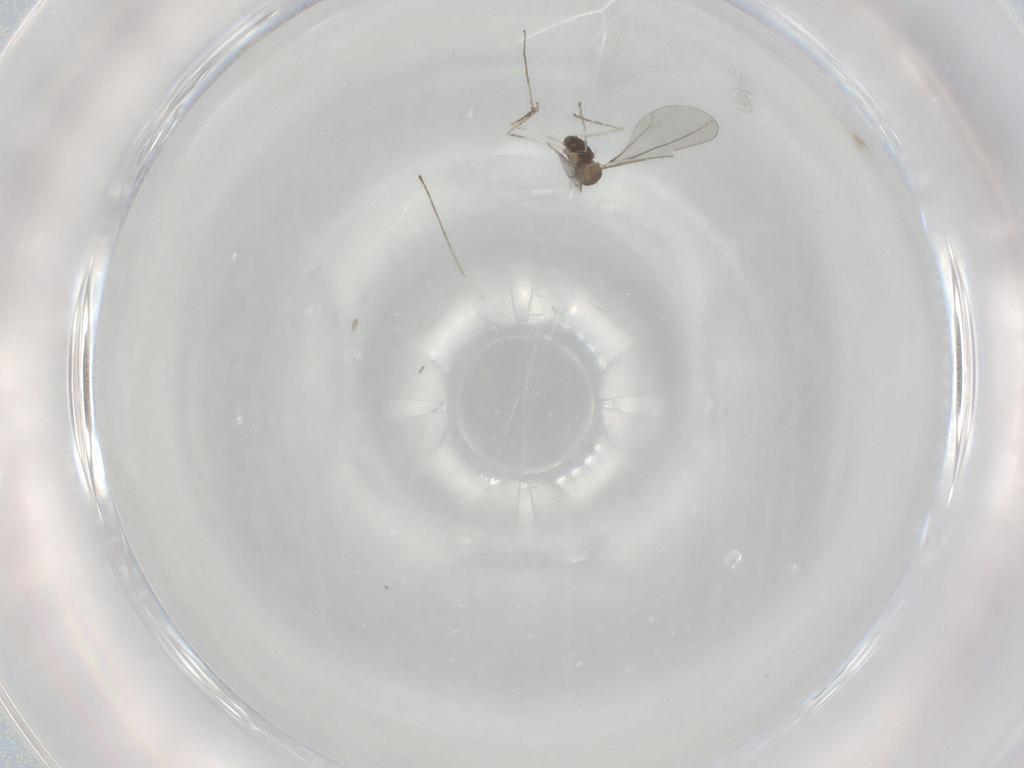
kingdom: Animalia
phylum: Arthropoda
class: Insecta
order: Diptera
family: Cecidomyiidae
